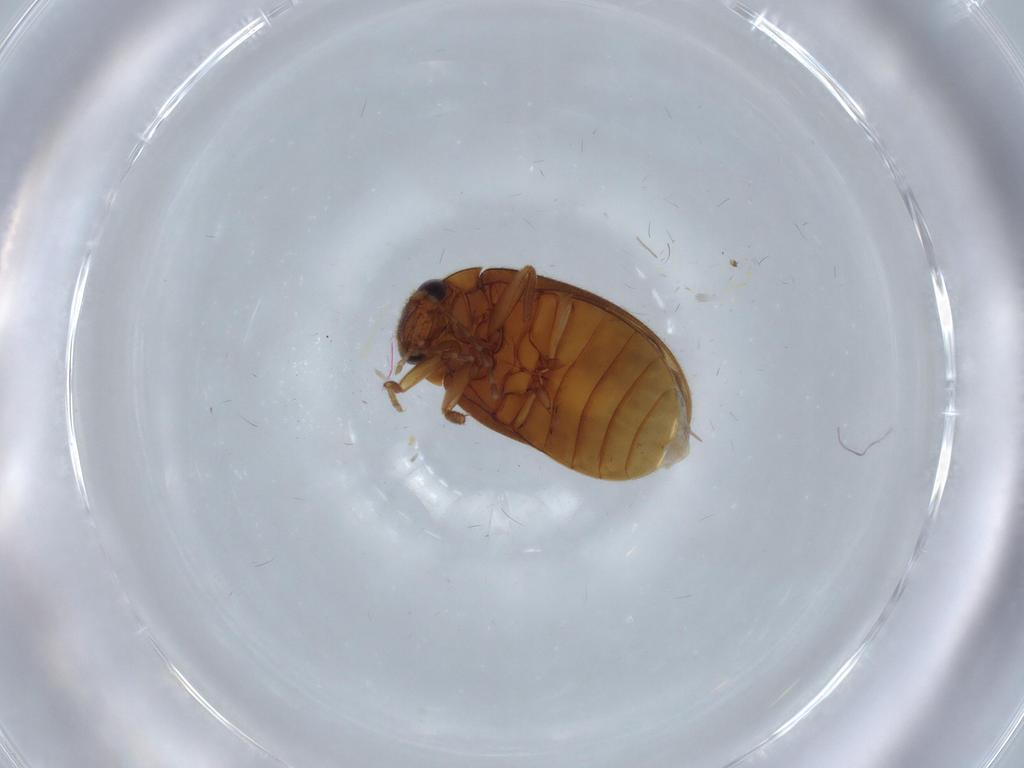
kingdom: Animalia
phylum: Arthropoda
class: Insecta
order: Coleoptera
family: Scirtidae
